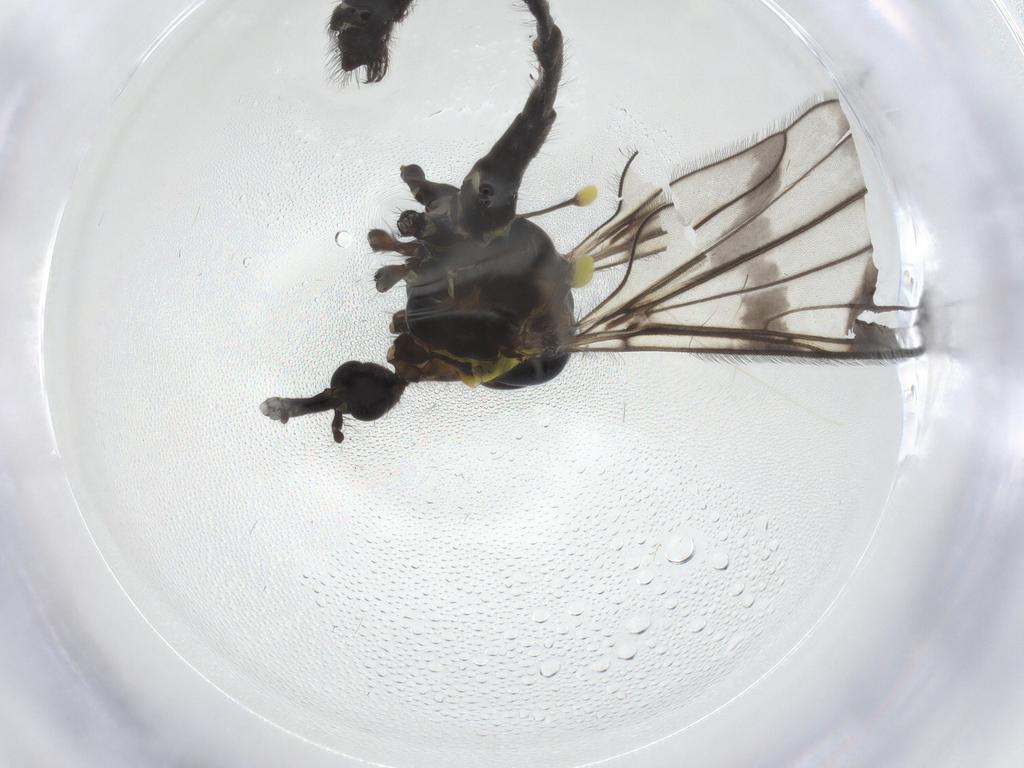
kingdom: Animalia
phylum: Arthropoda
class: Insecta
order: Diptera
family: Limoniidae
